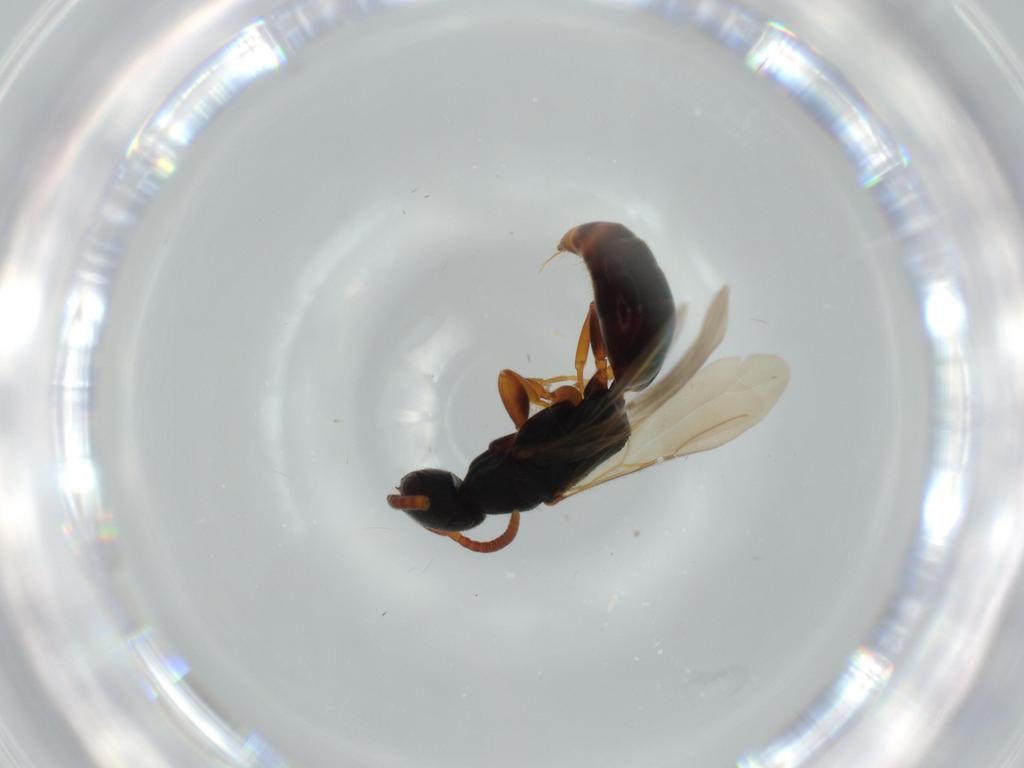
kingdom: Animalia
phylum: Arthropoda
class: Insecta
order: Hymenoptera
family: Bethylidae
